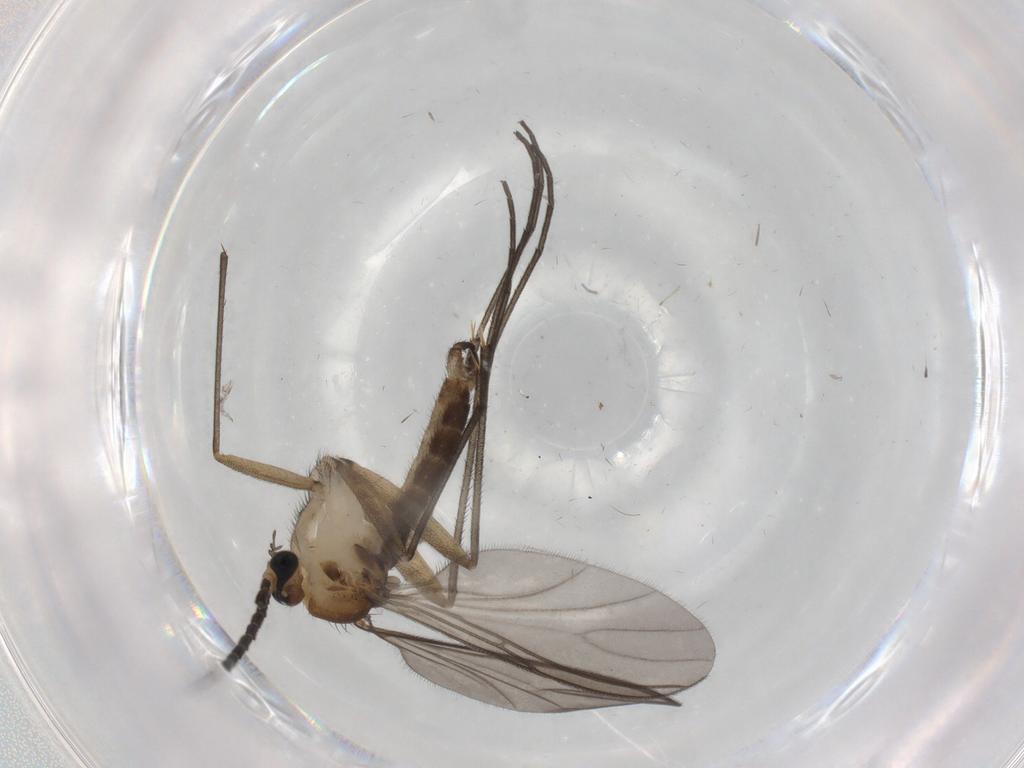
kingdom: Animalia
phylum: Arthropoda
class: Insecta
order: Diptera
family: Sciaridae
